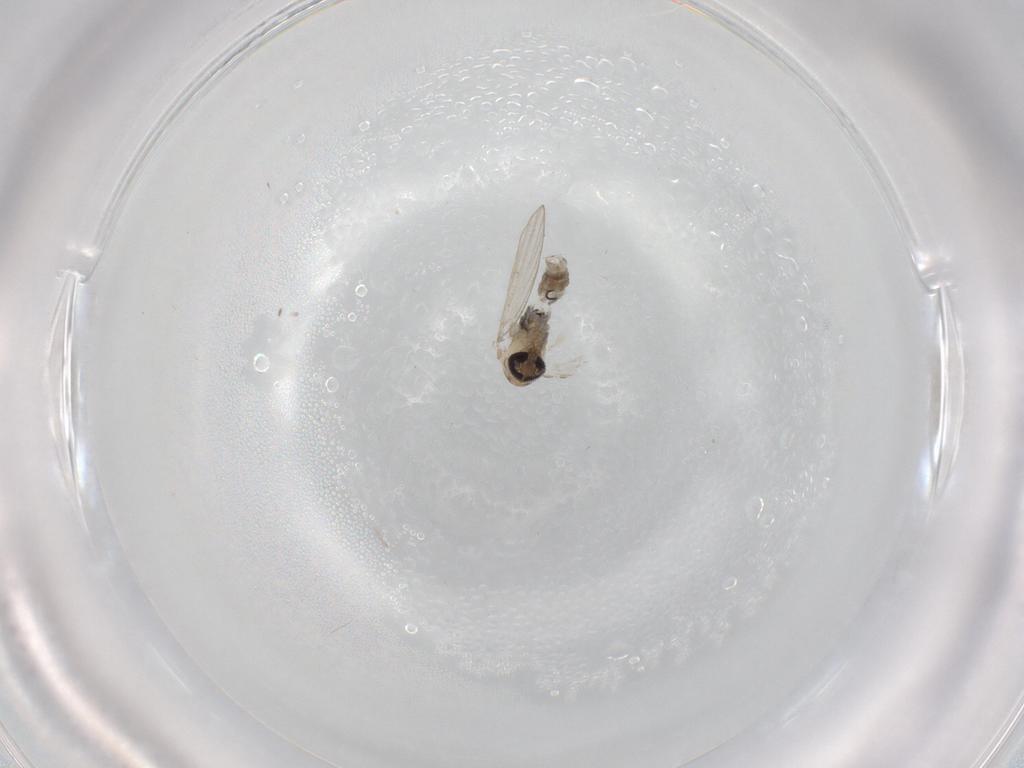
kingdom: Animalia
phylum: Arthropoda
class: Insecta
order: Diptera
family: Psychodidae
